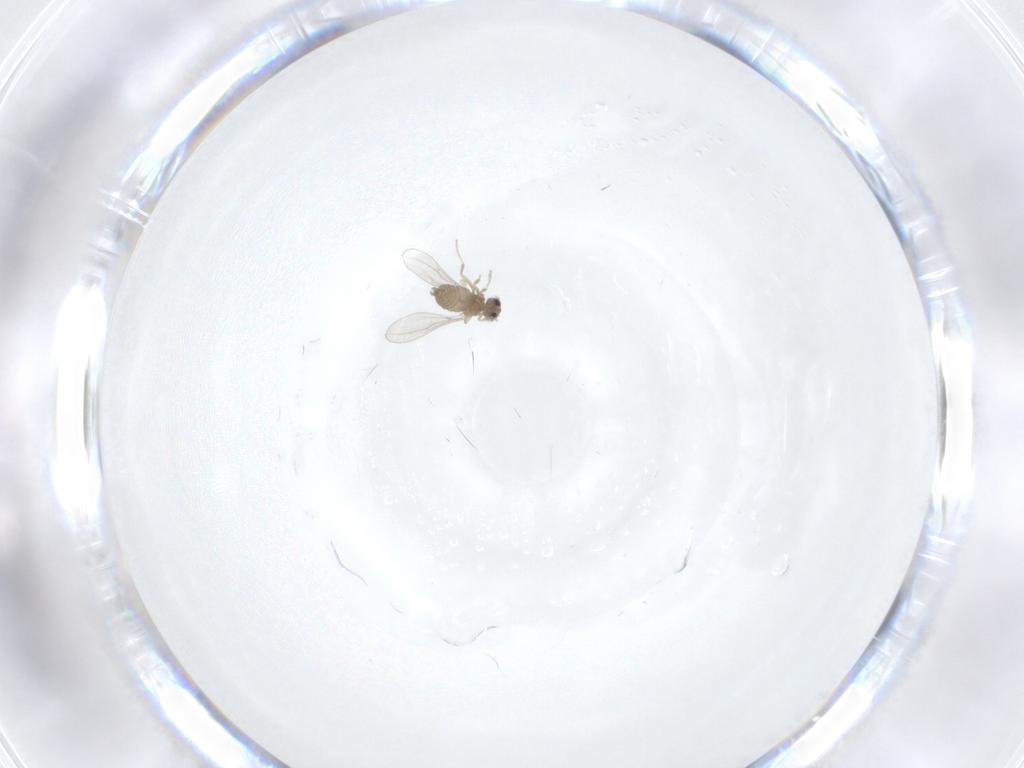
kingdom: Animalia
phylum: Arthropoda
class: Insecta
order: Diptera
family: Cecidomyiidae
